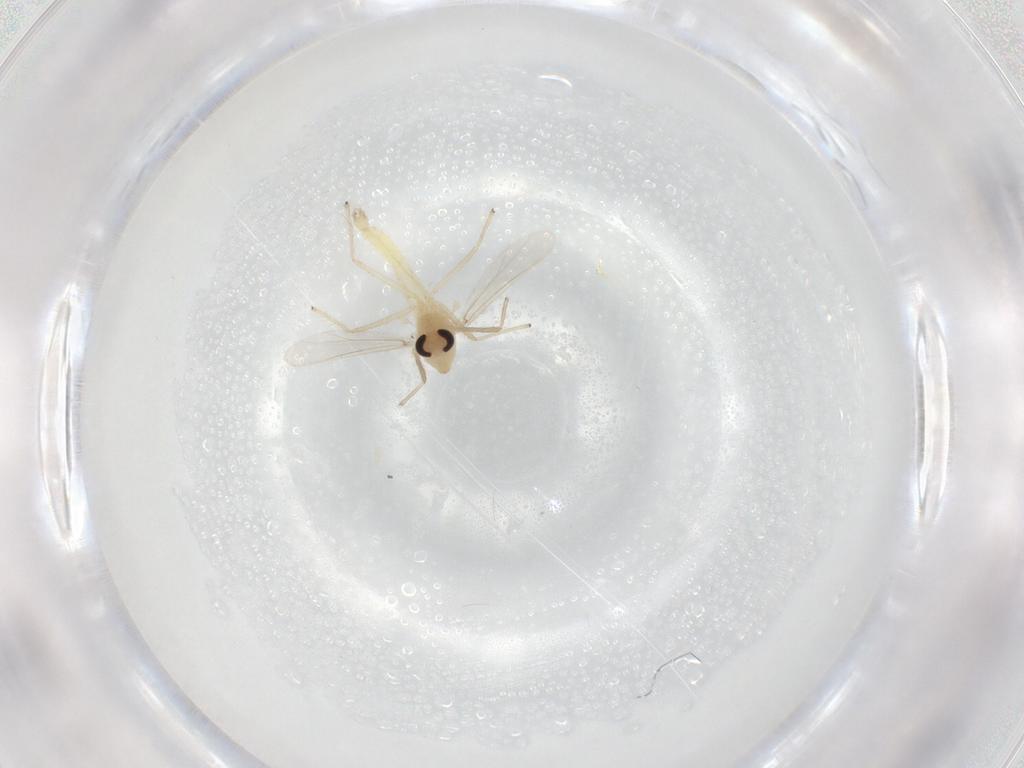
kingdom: Animalia
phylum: Arthropoda
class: Insecta
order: Diptera
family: Chironomidae
